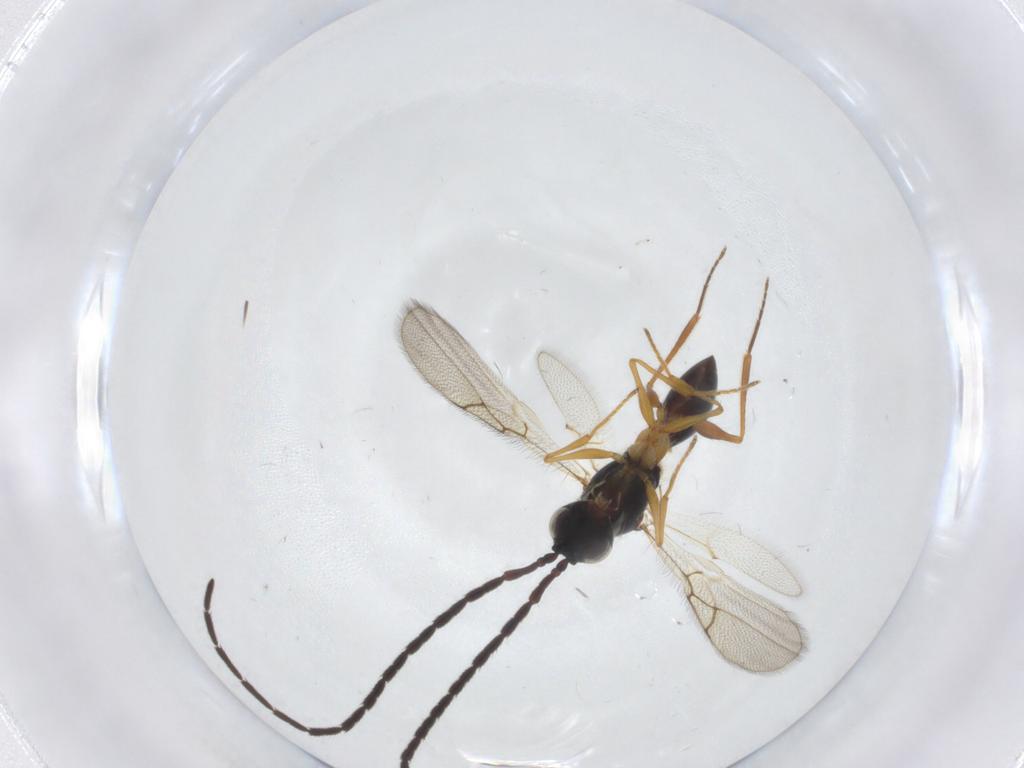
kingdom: Animalia
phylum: Arthropoda
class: Insecta
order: Hymenoptera
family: Figitidae
